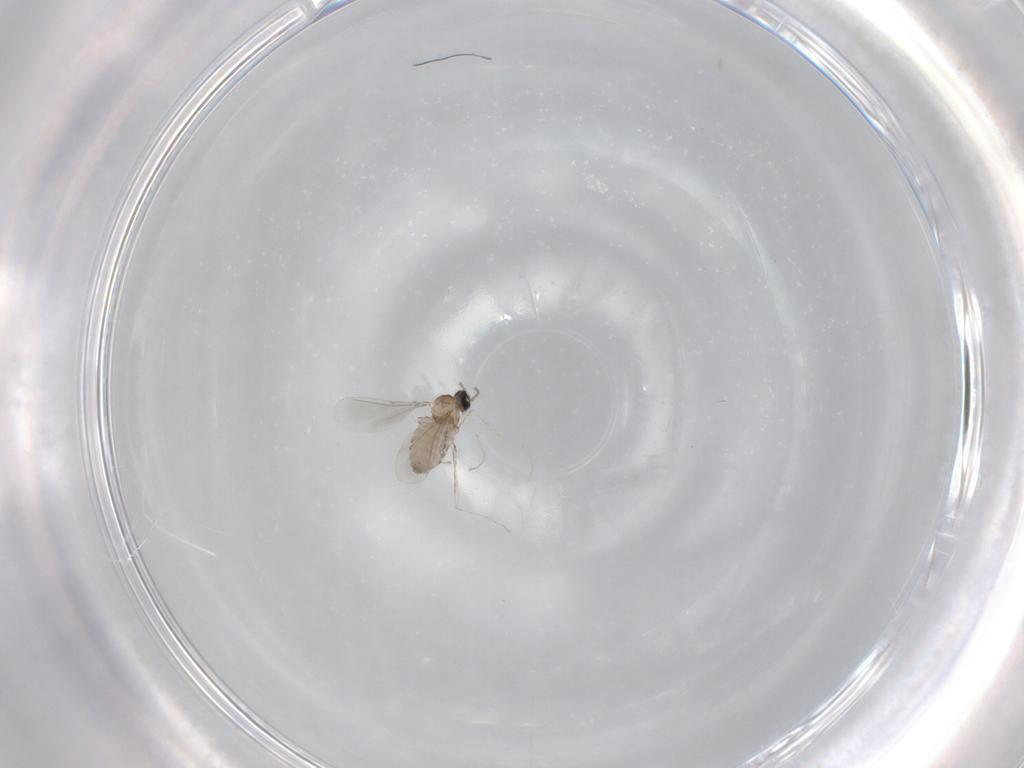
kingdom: Animalia
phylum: Arthropoda
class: Insecta
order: Diptera
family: Cecidomyiidae
